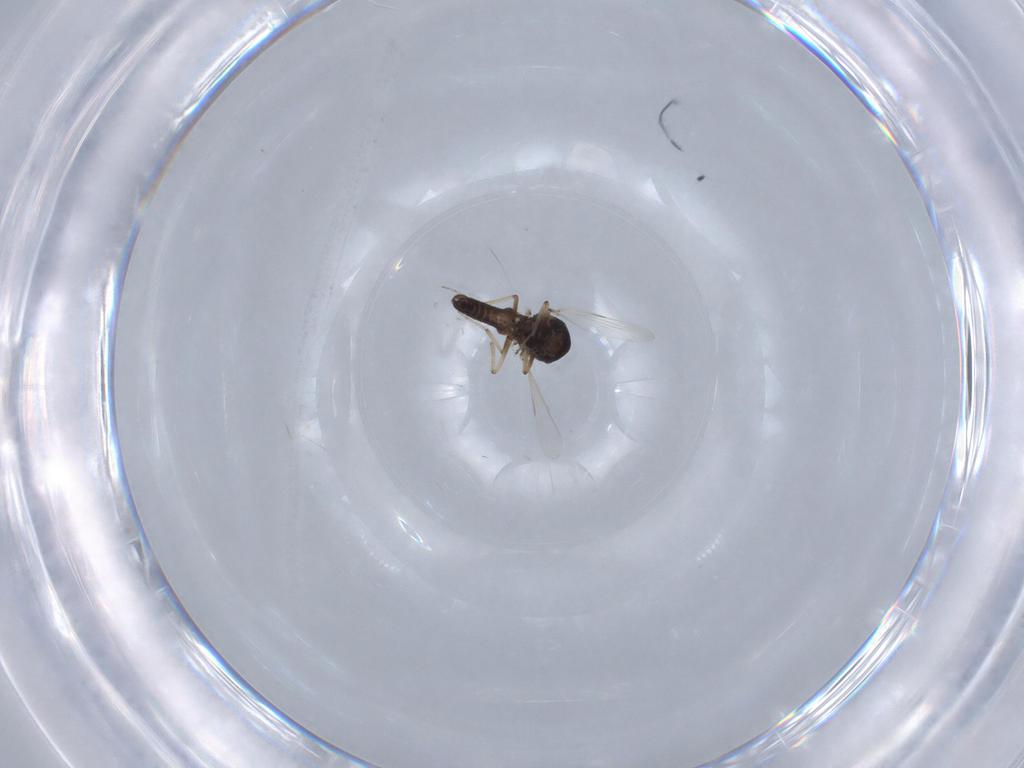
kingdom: Animalia
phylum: Arthropoda
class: Insecta
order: Diptera
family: Ceratopogonidae
